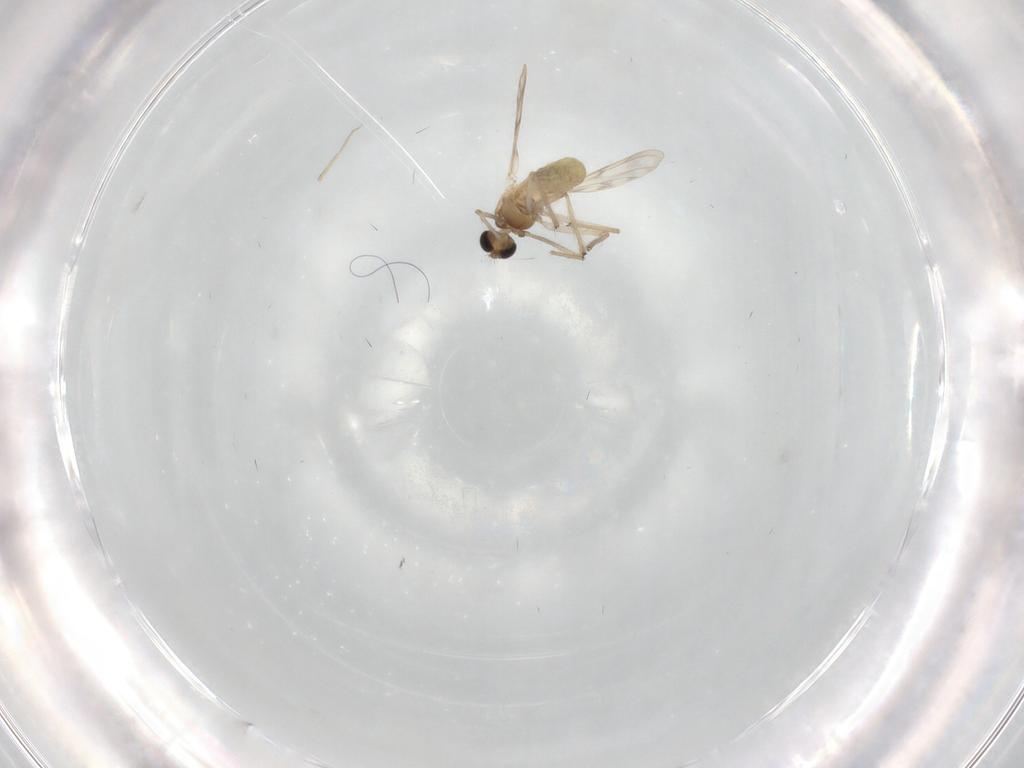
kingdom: Animalia
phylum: Arthropoda
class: Insecta
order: Diptera
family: Chironomidae
